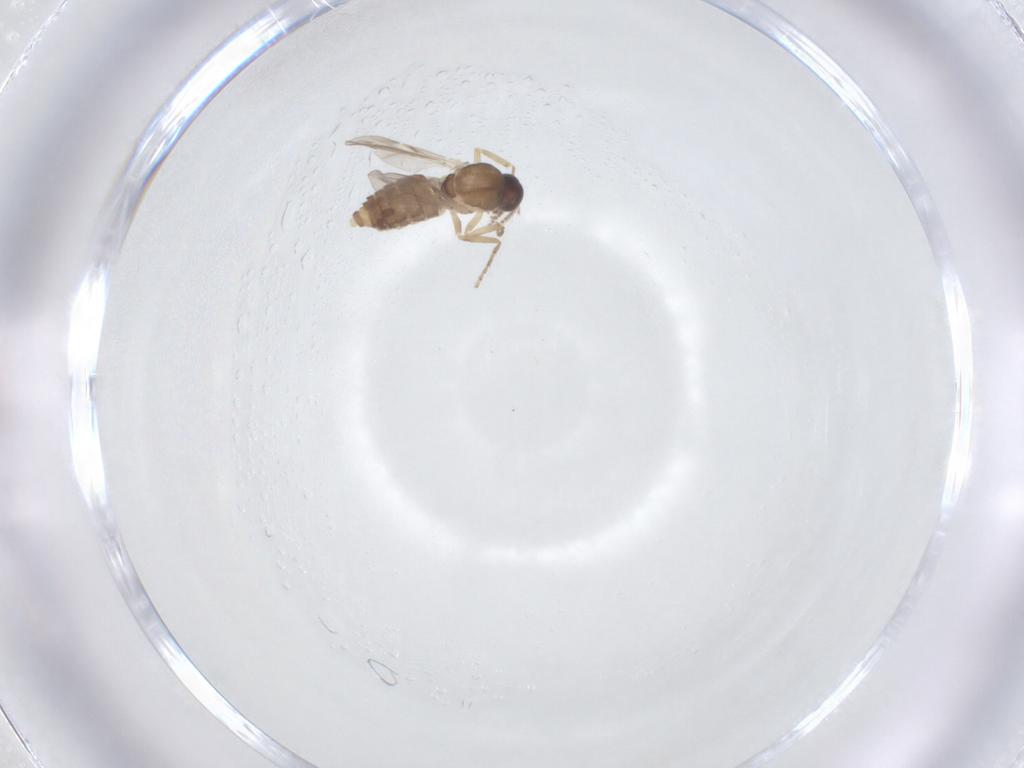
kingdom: Animalia
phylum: Arthropoda
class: Insecta
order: Diptera
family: Ceratopogonidae
